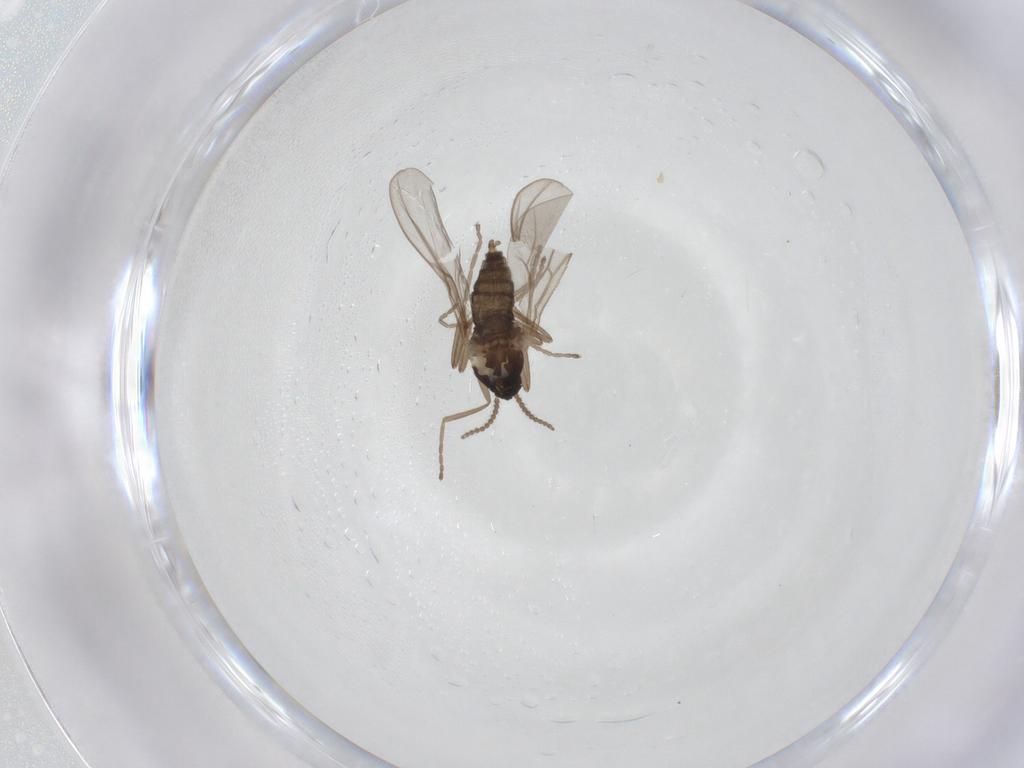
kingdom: Animalia
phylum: Arthropoda
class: Insecta
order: Diptera
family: Cecidomyiidae
